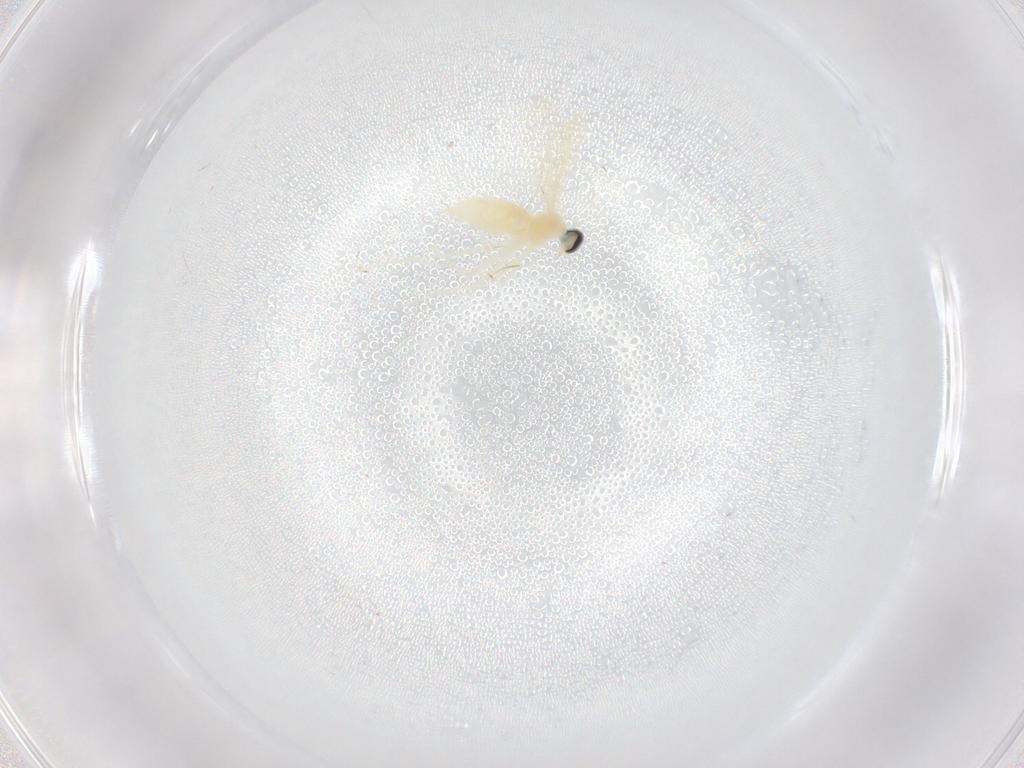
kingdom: Animalia
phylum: Arthropoda
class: Insecta
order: Diptera
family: Cecidomyiidae
